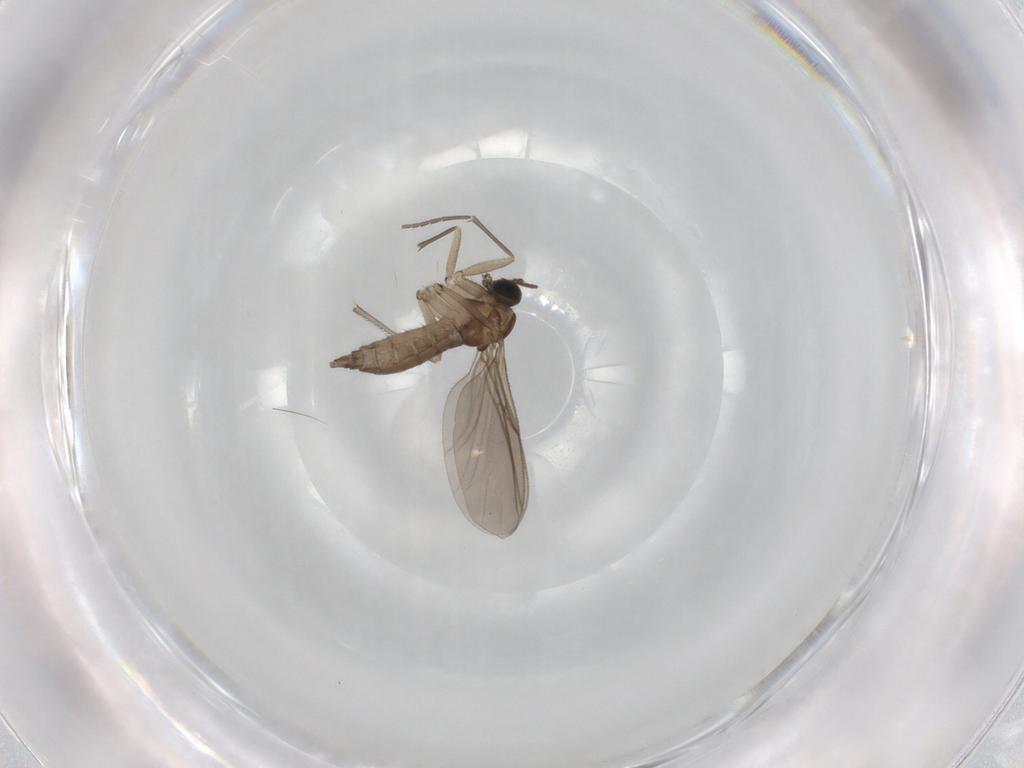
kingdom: Animalia
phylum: Arthropoda
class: Insecta
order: Diptera
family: Sciaridae
